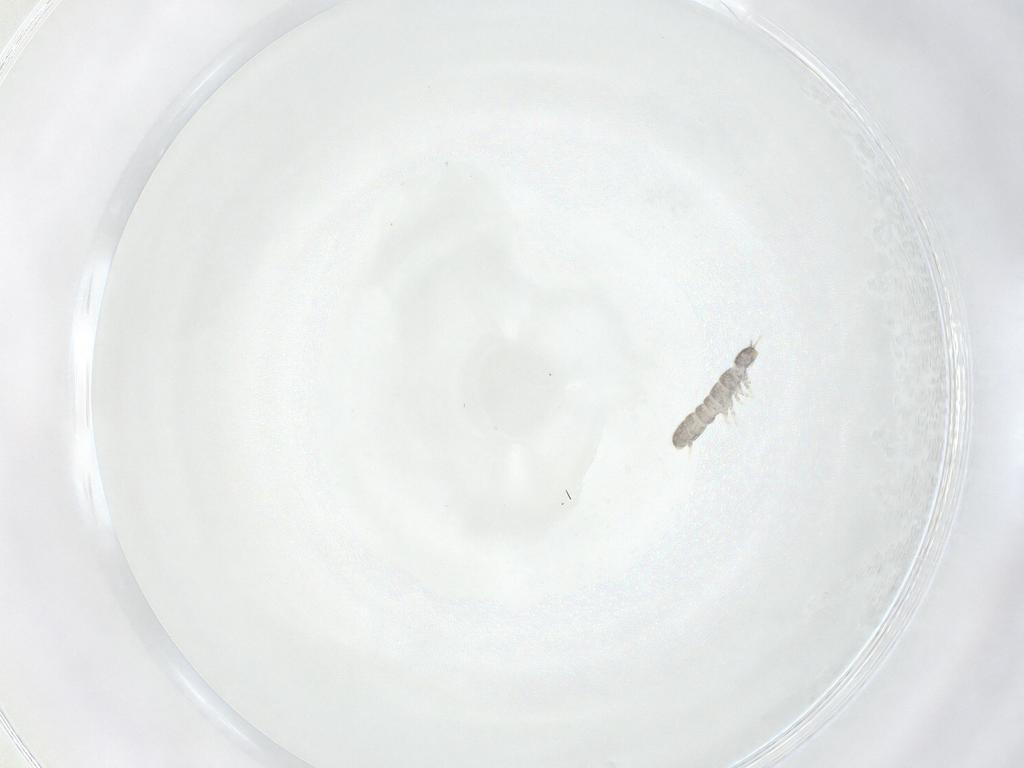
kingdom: Animalia
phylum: Arthropoda
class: Collembola
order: Entomobryomorpha
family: Isotomidae
